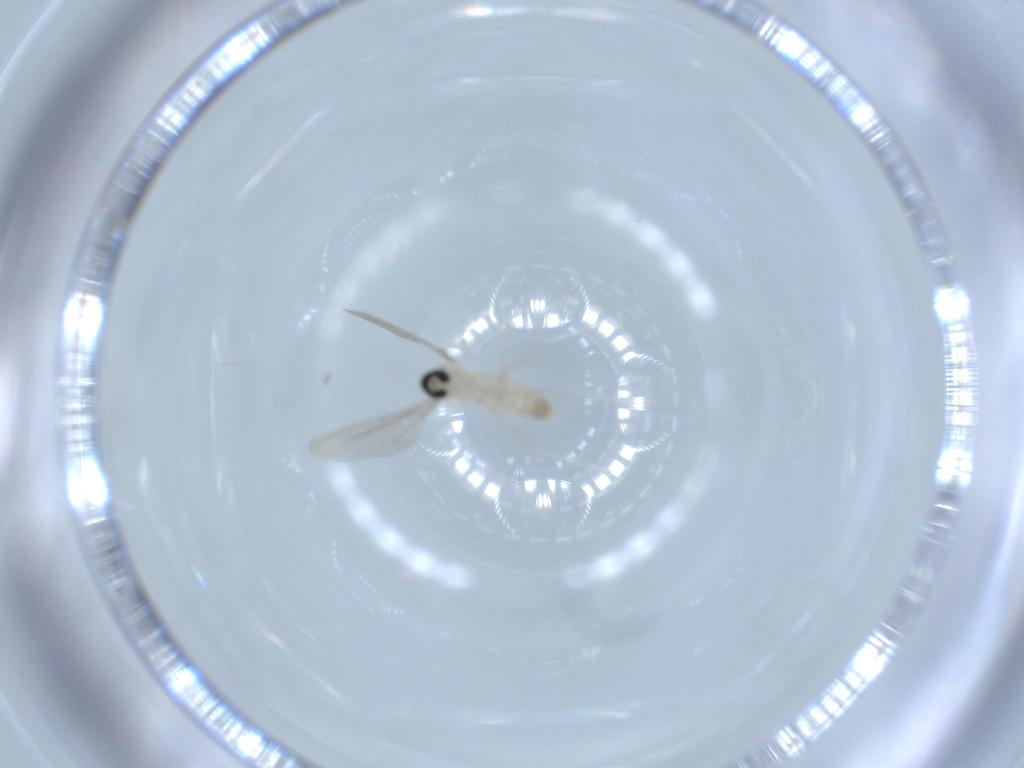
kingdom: Animalia
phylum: Arthropoda
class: Insecta
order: Diptera
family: Cecidomyiidae
